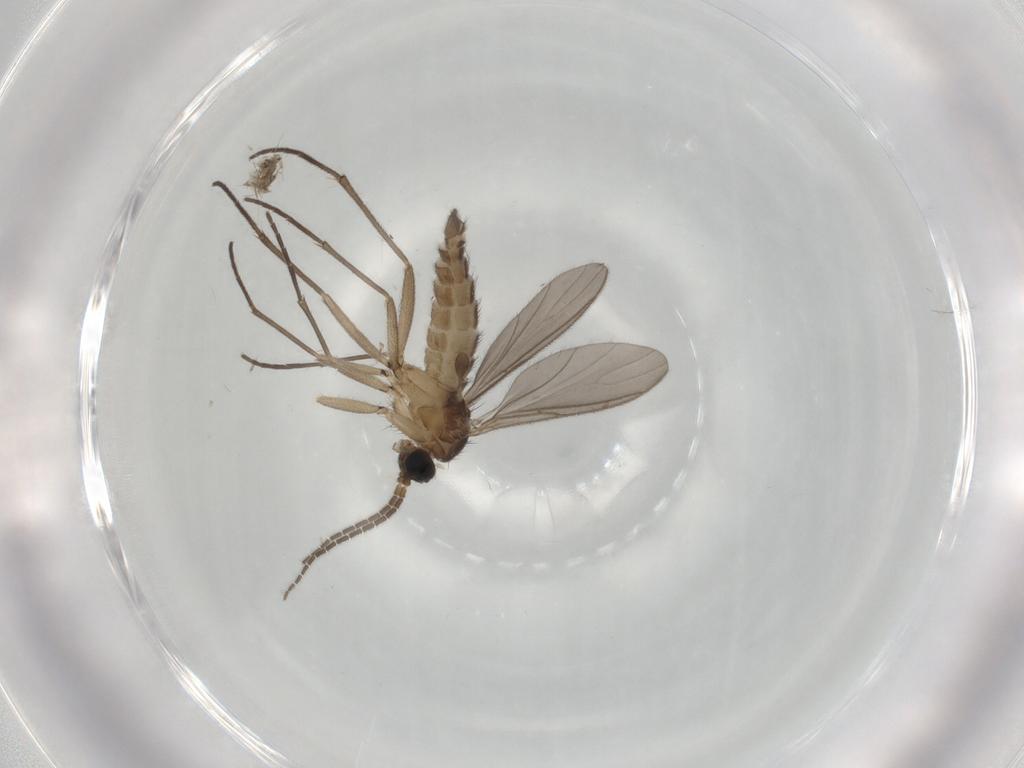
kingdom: Animalia
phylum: Arthropoda
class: Insecta
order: Diptera
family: Sciaridae
